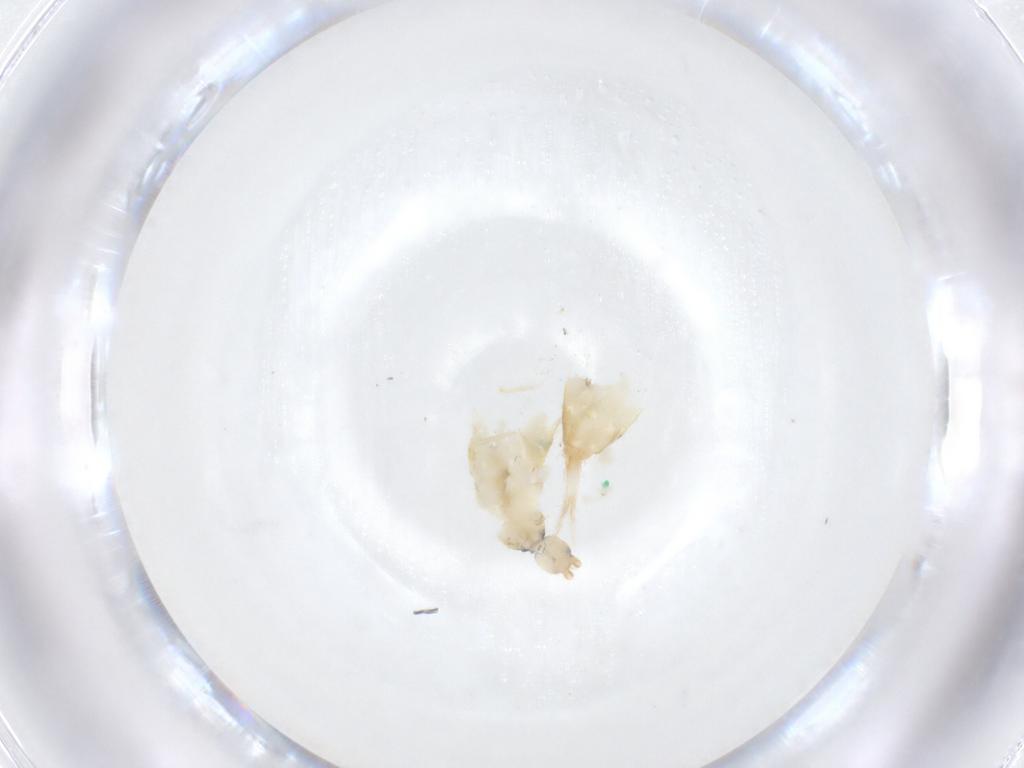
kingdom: Animalia
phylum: Arthropoda
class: Collembola
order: Entomobryomorpha
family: Entomobryidae
